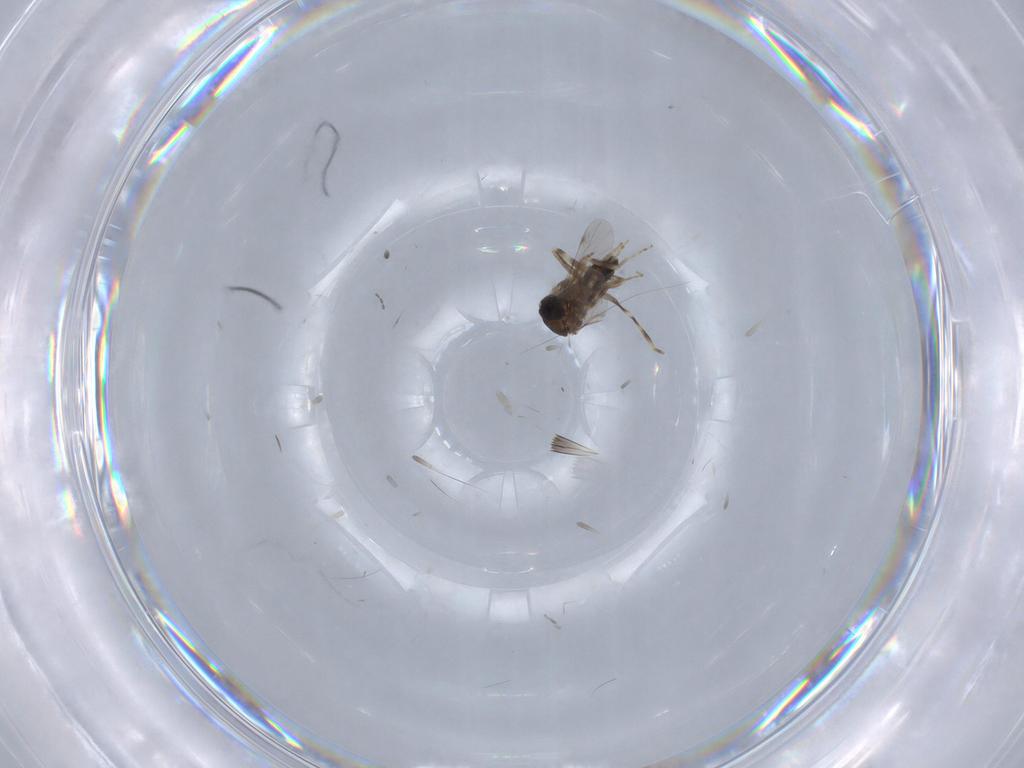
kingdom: Animalia
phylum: Arthropoda
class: Insecta
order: Diptera
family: Ceratopogonidae
